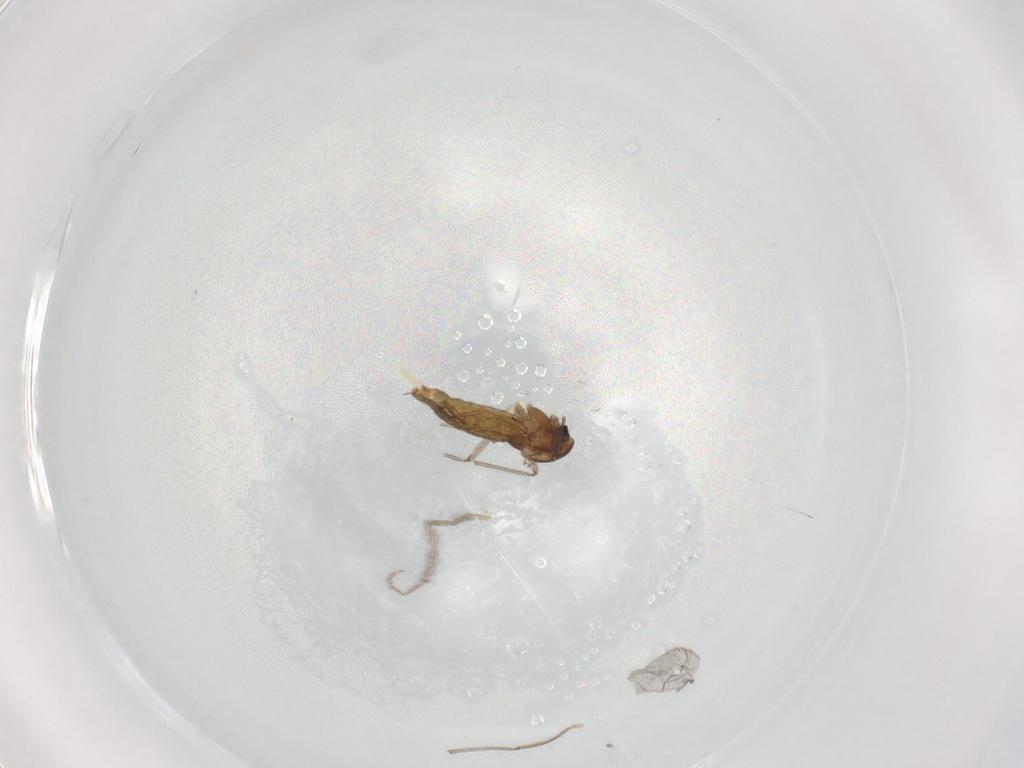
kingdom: Animalia
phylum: Arthropoda
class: Insecta
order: Diptera
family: Chironomidae
